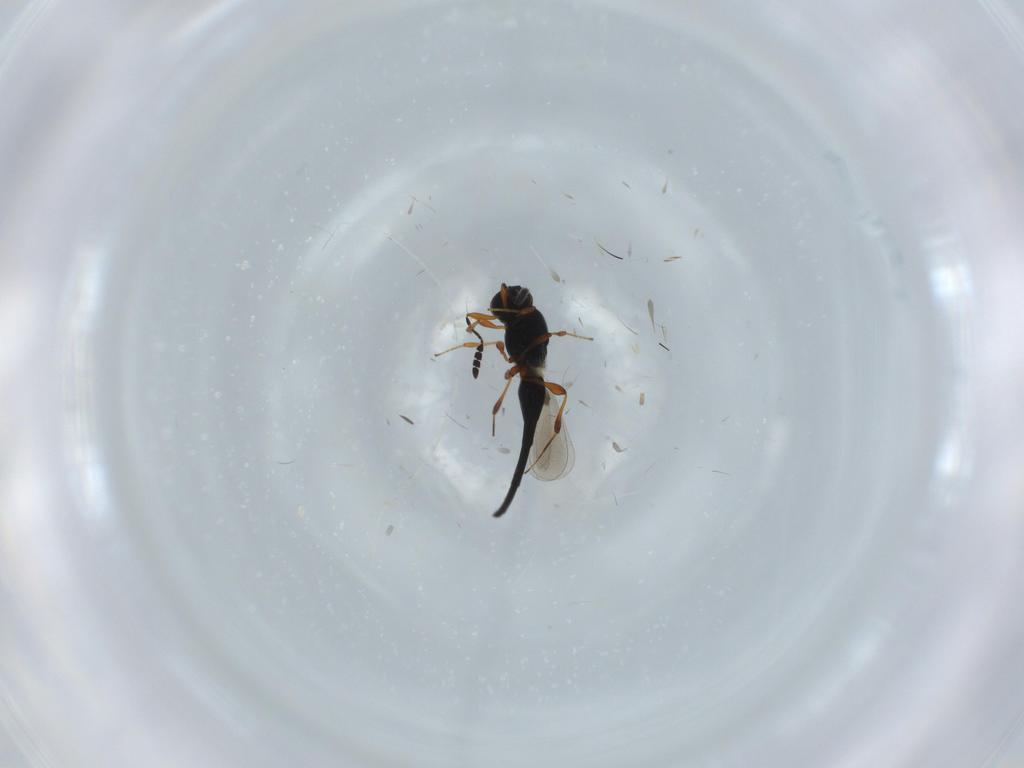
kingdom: Animalia
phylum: Arthropoda
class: Insecta
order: Hymenoptera
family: Platygastridae
